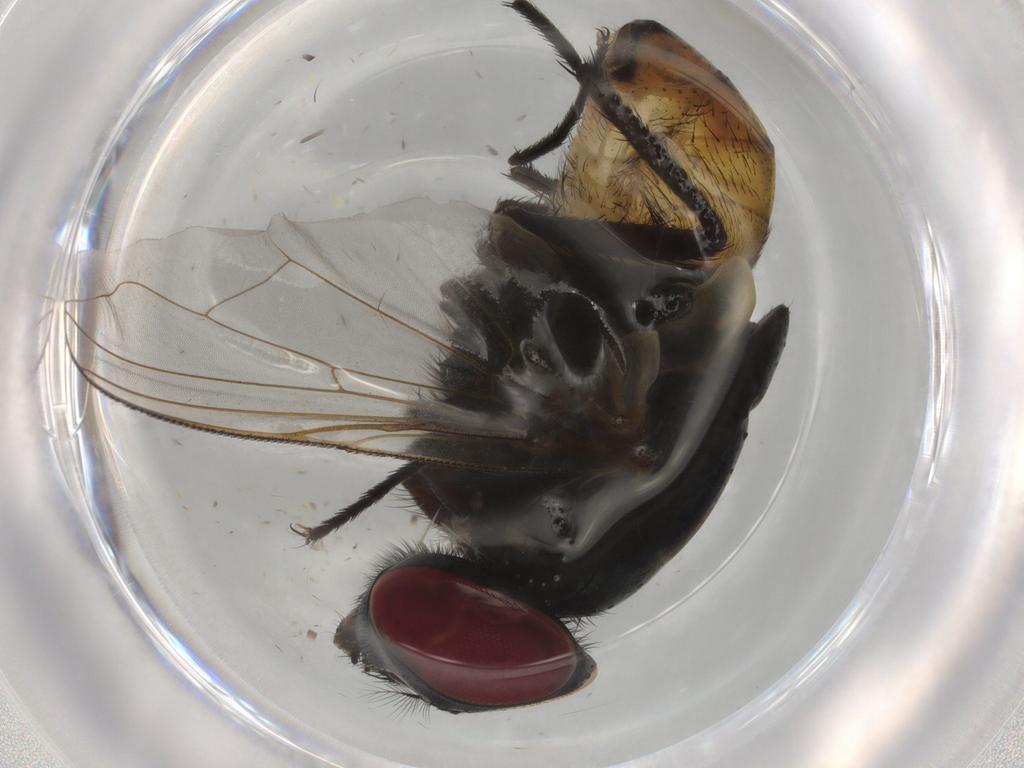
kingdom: Animalia
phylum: Arthropoda
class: Insecta
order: Diptera
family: Muscidae
